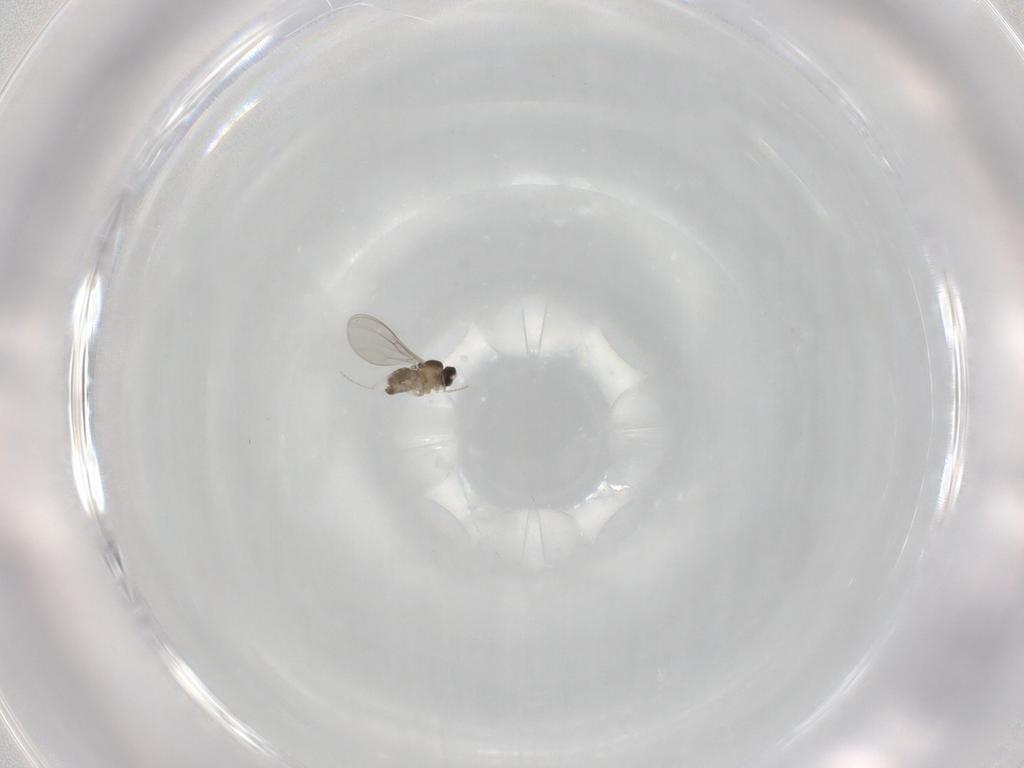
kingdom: Animalia
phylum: Arthropoda
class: Insecta
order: Diptera
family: Cecidomyiidae
